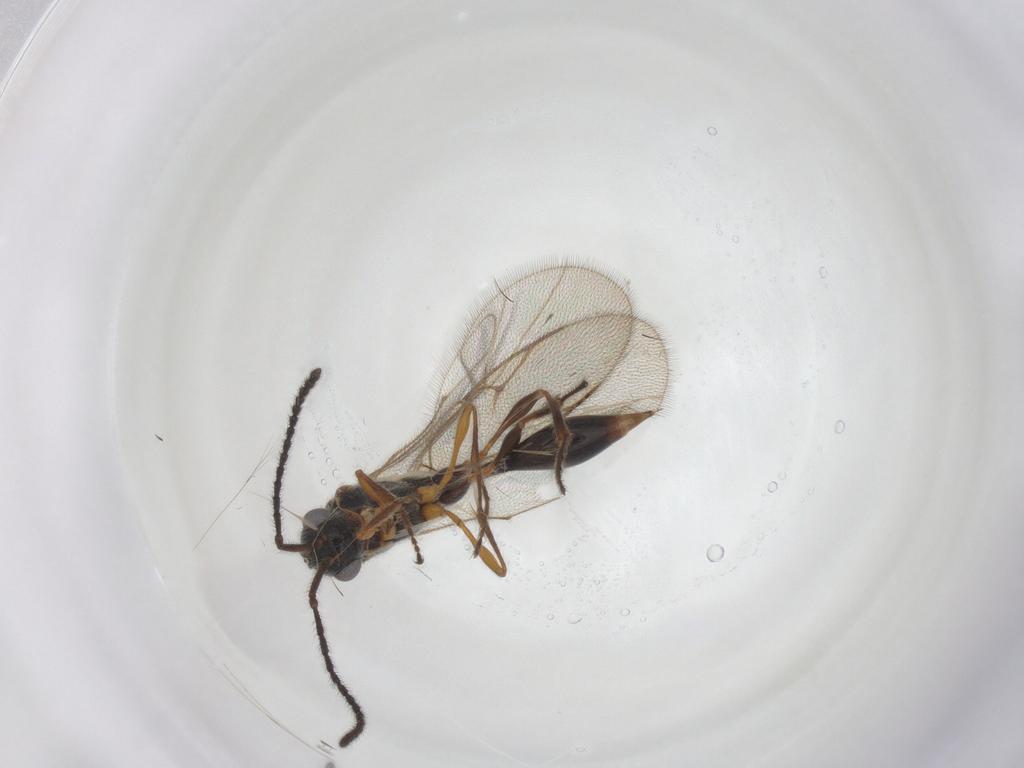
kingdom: Animalia
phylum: Arthropoda
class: Insecta
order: Hymenoptera
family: Diapriidae
